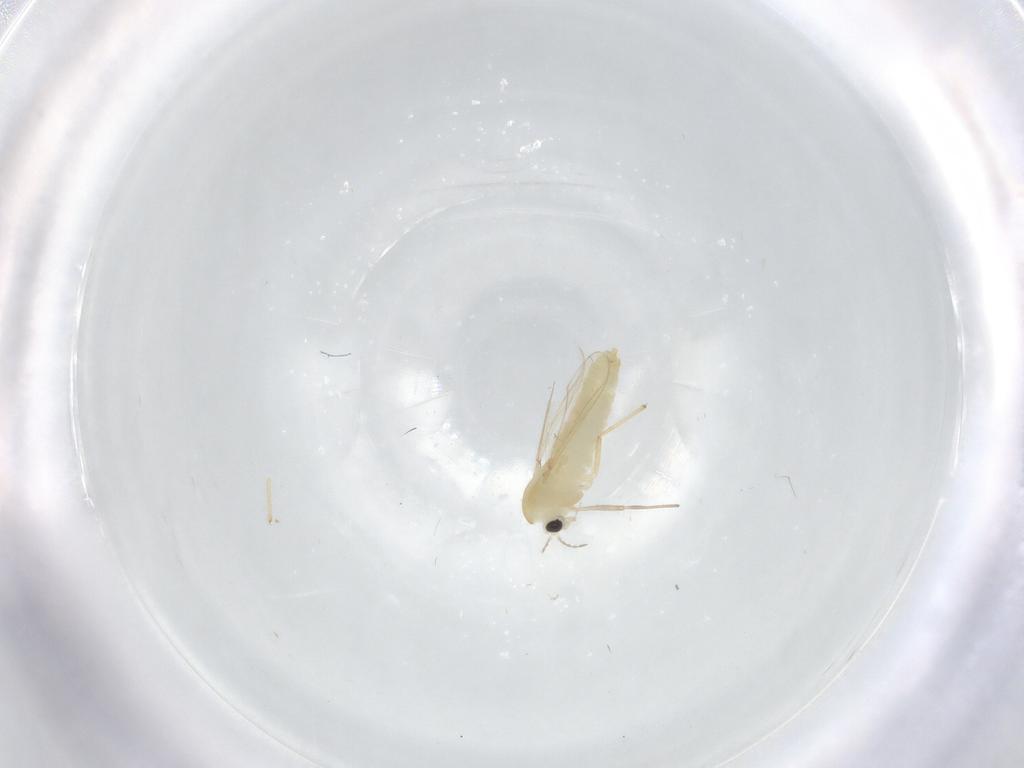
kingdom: Animalia
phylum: Arthropoda
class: Insecta
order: Diptera
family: Chironomidae
